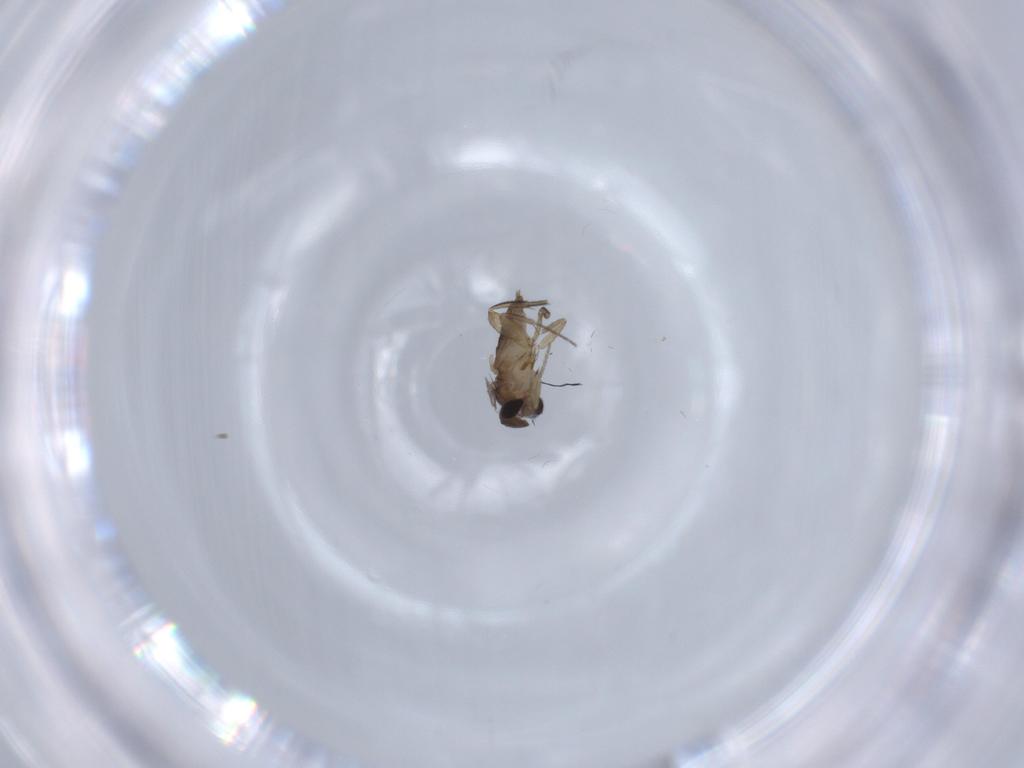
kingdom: Animalia
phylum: Arthropoda
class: Insecta
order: Diptera
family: Phoridae
